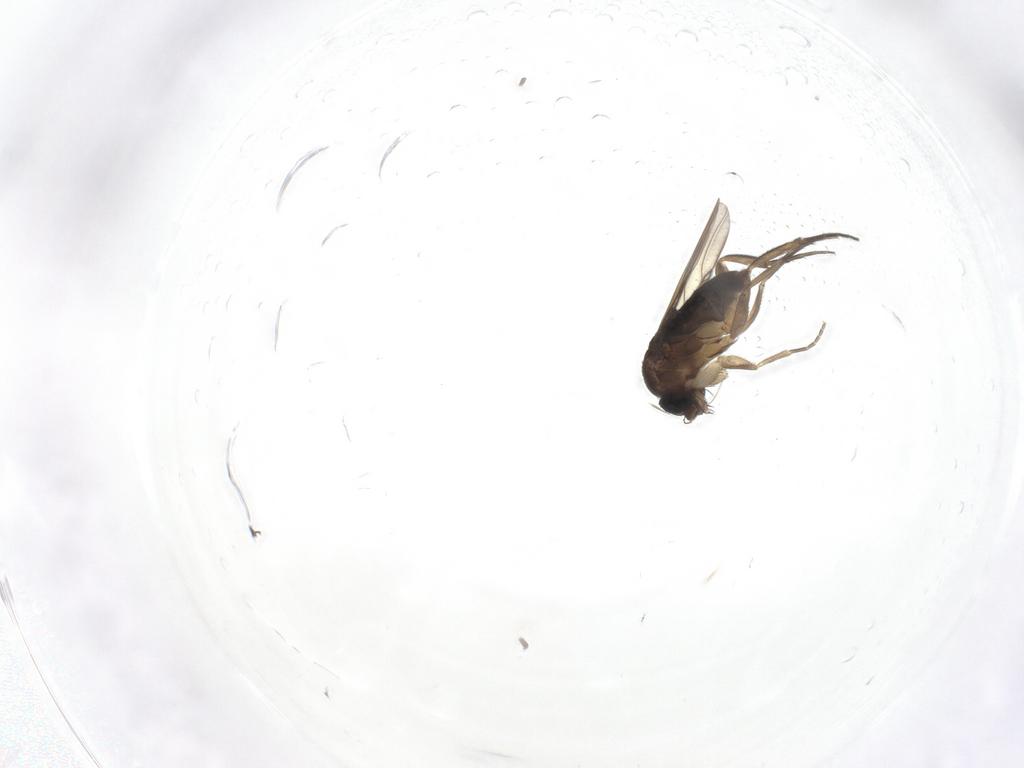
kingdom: Animalia
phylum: Arthropoda
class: Insecta
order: Diptera
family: Phoridae
